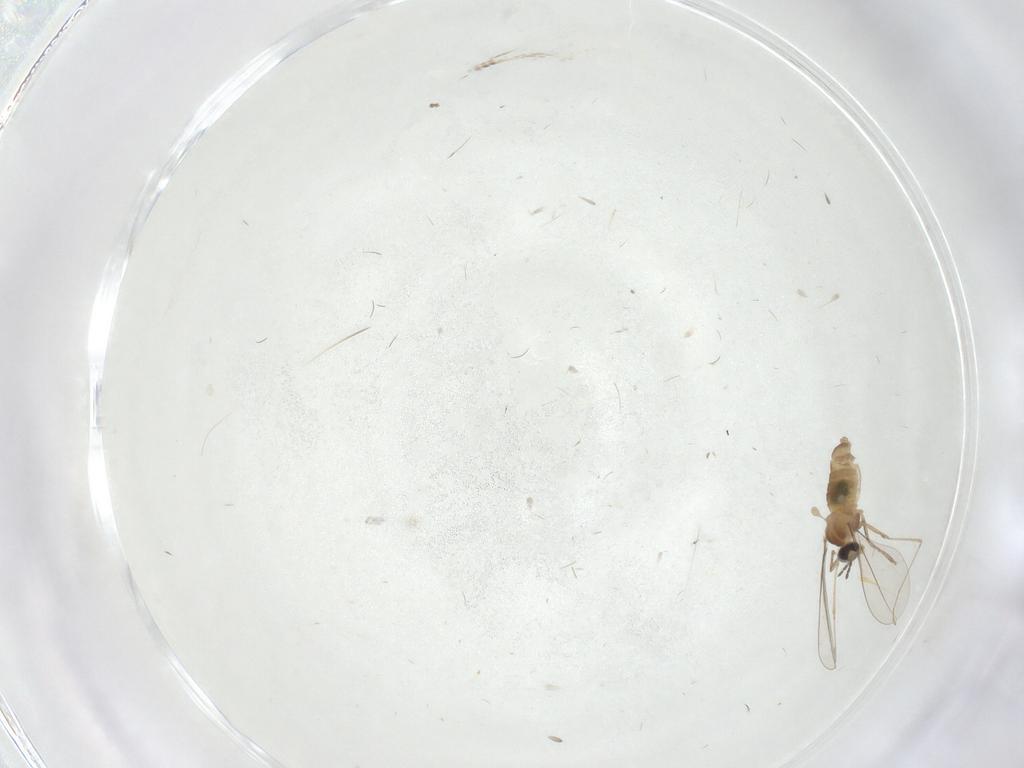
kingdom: Animalia
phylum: Arthropoda
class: Insecta
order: Diptera
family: Cecidomyiidae
